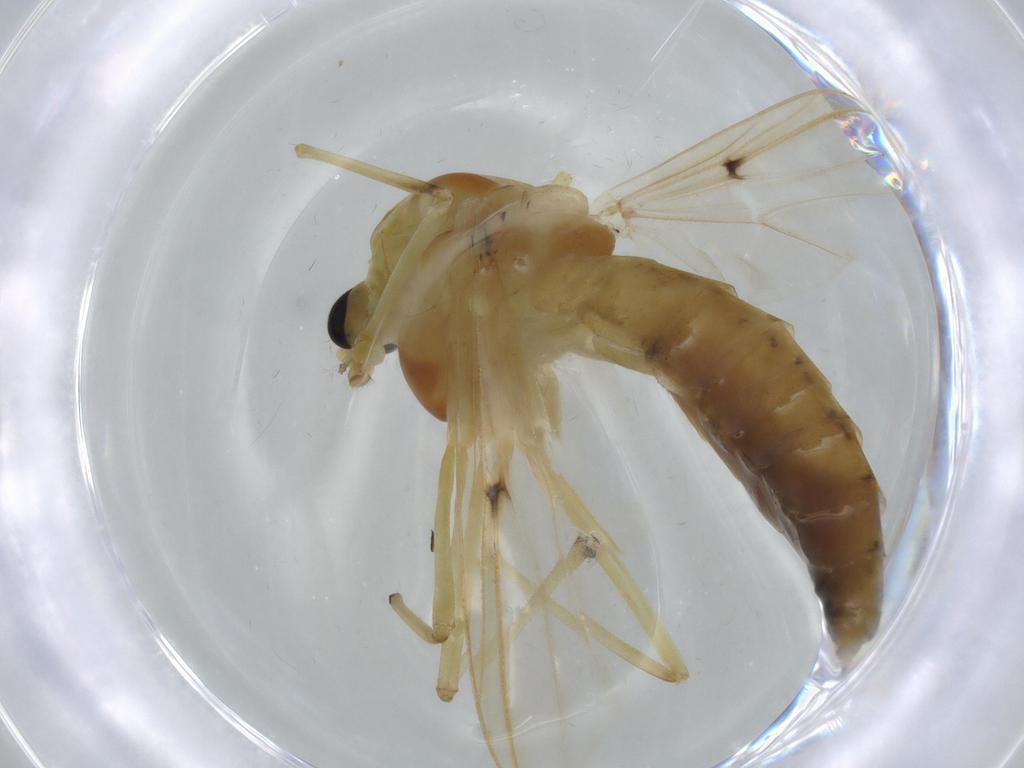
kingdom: Animalia
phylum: Arthropoda
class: Insecta
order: Diptera
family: Chironomidae
